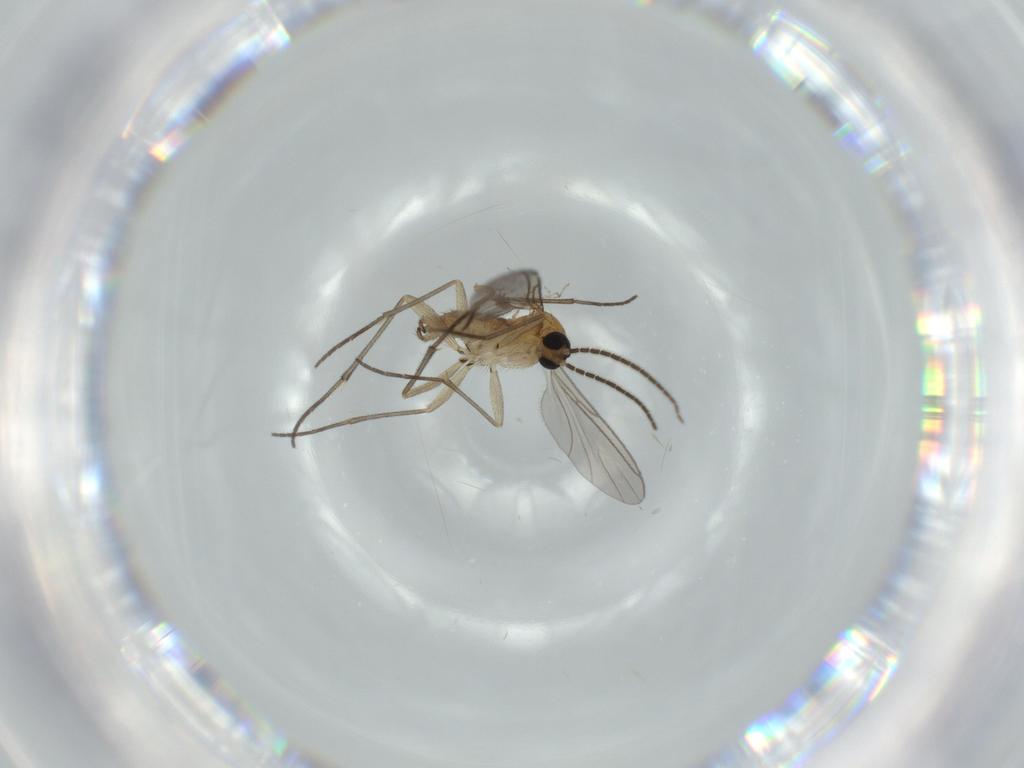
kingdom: Animalia
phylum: Arthropoda
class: Insecta
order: Diptera
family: Sciaridae
